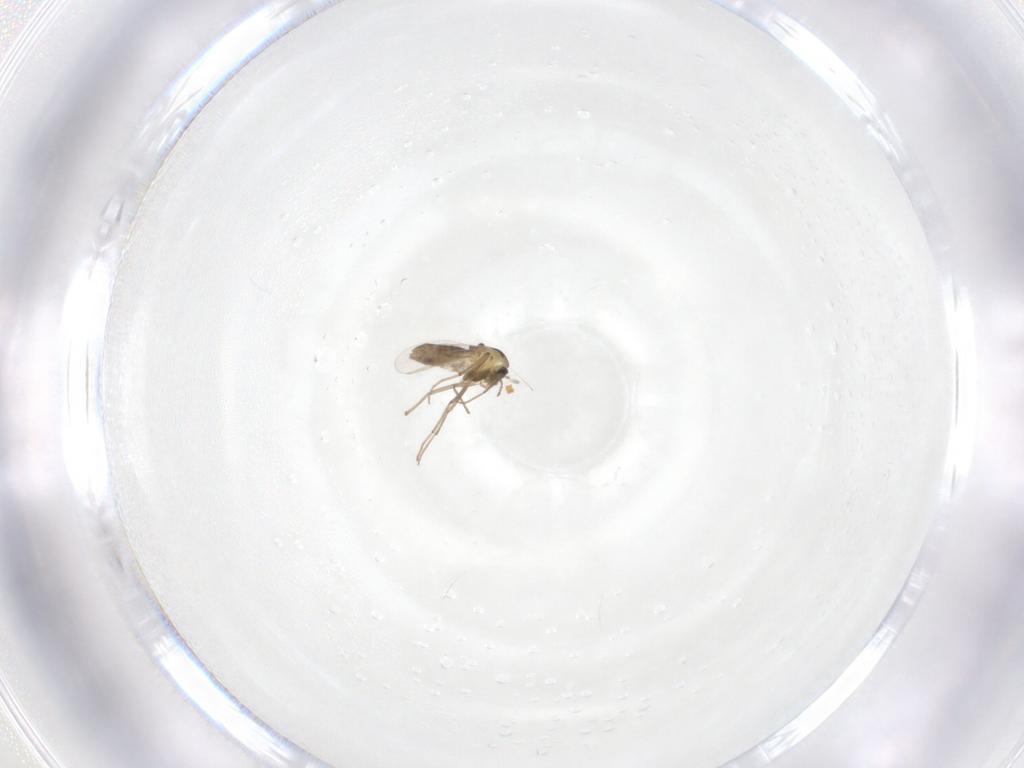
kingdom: Animalia
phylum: Arthropoda
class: Insecta
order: Diptera
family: Chironomidae
